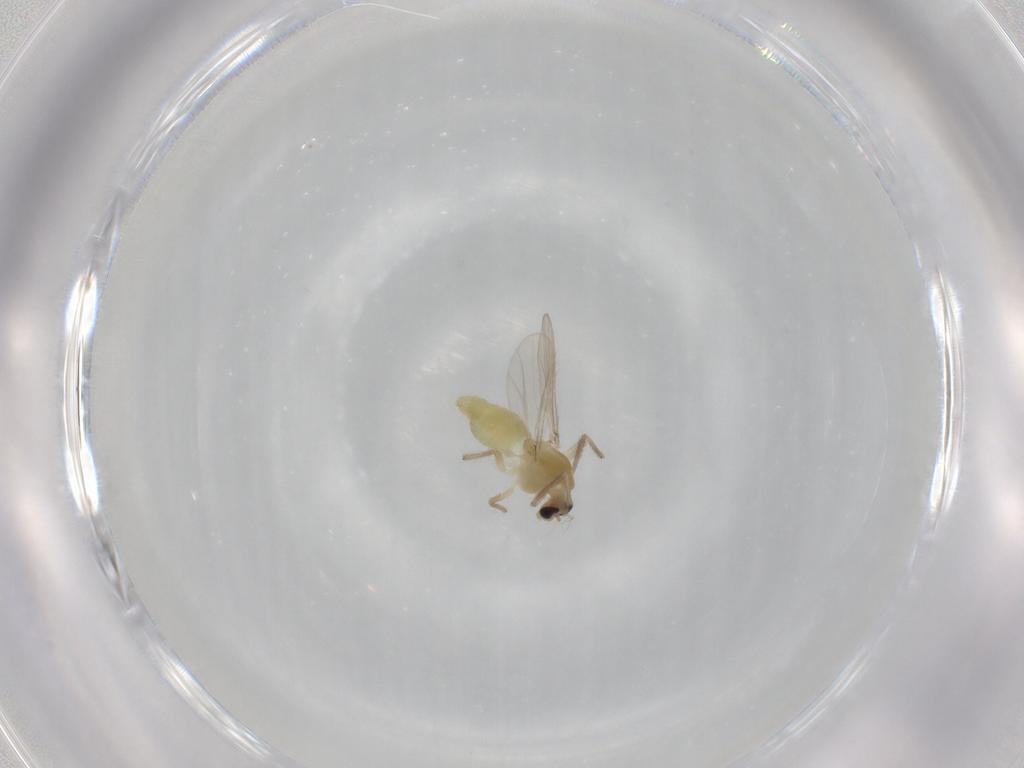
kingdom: Animalia
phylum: Arthropoda
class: Insecta
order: Diptera
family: Chironomidae
